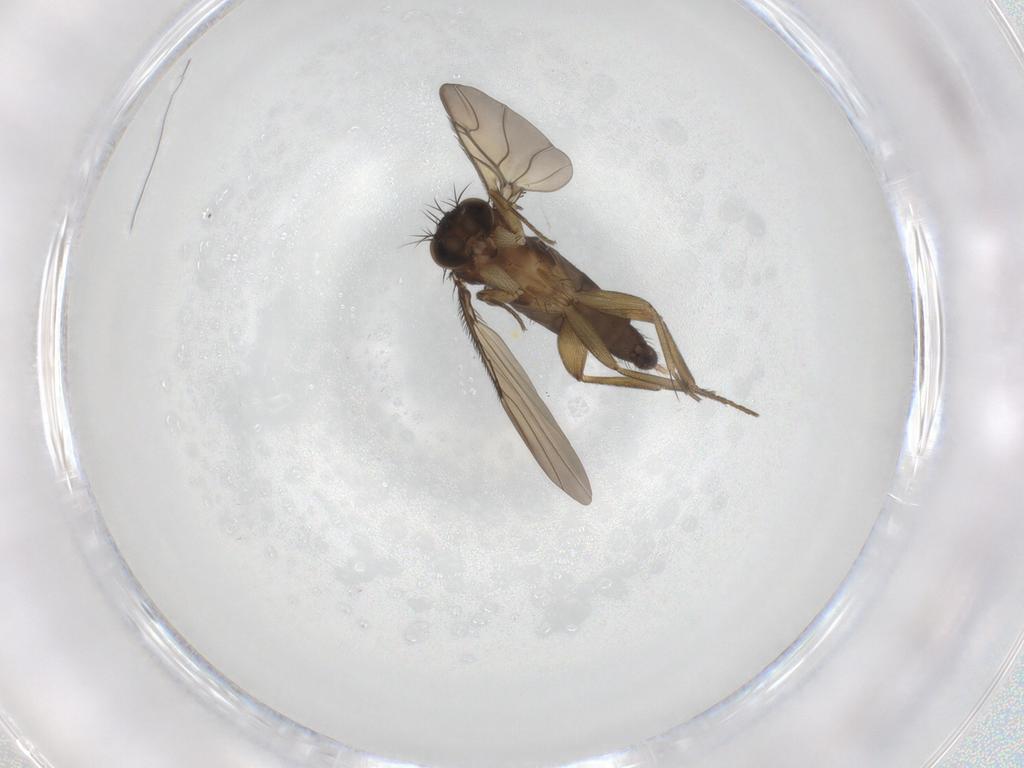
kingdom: Animalia
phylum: Arthropoda
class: Insecta
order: Diptera
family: Phoridae
